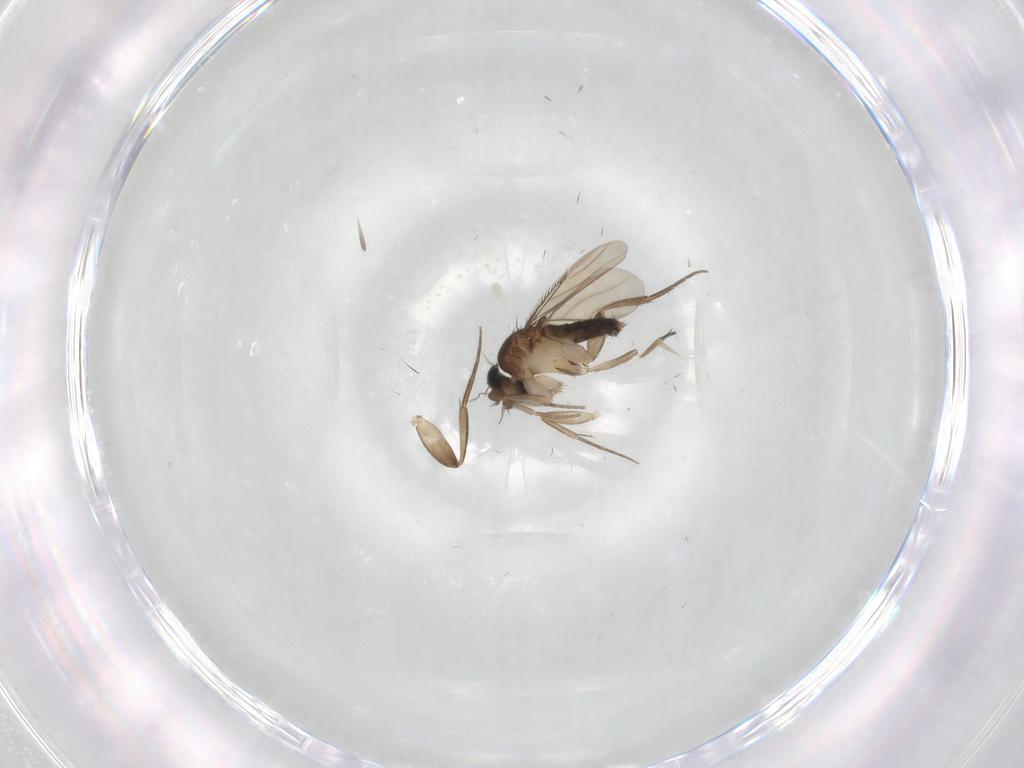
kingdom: Animalia
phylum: Arthropoda
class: Insecta
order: Diptera
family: Phoridae
